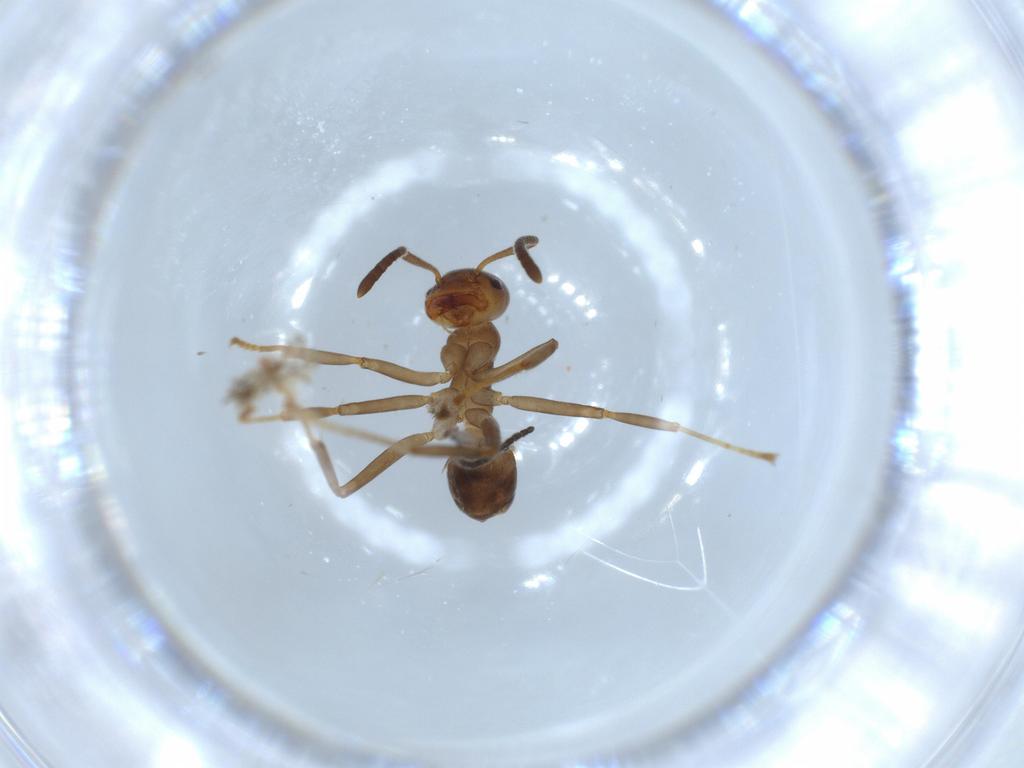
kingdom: Animalia
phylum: Arthropoda
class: Insecta
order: Hymenoptera
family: Formicidae
